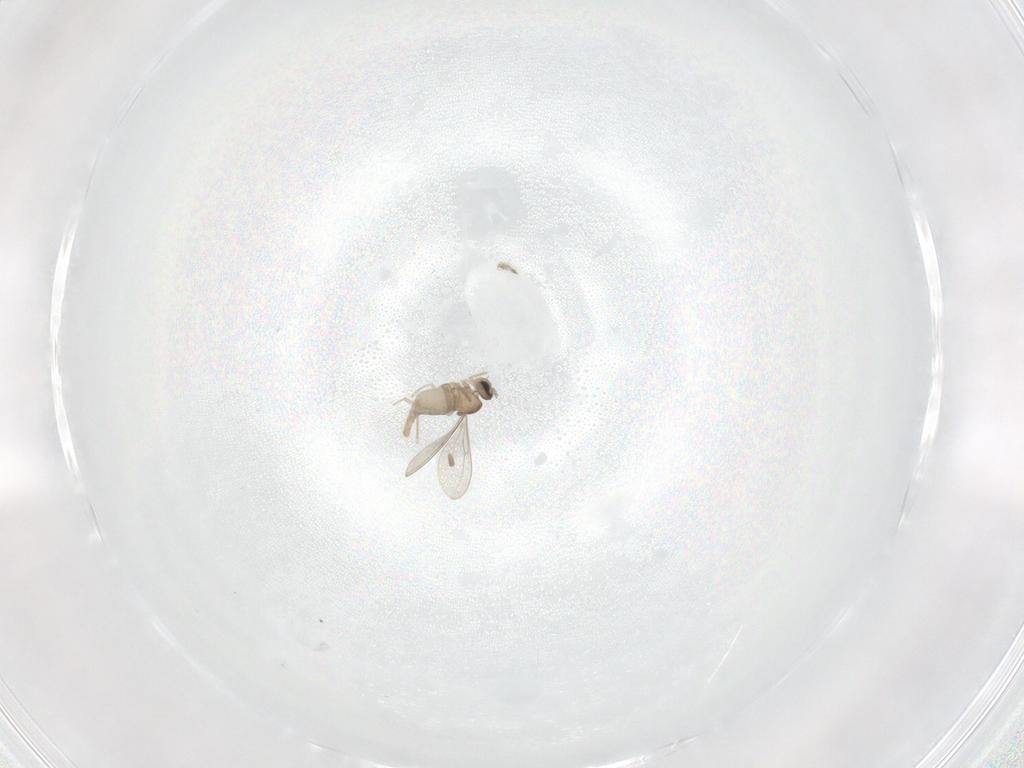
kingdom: Animalia
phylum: Arthropoda
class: Insecta
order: Diptera
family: Cecidomyiidae
